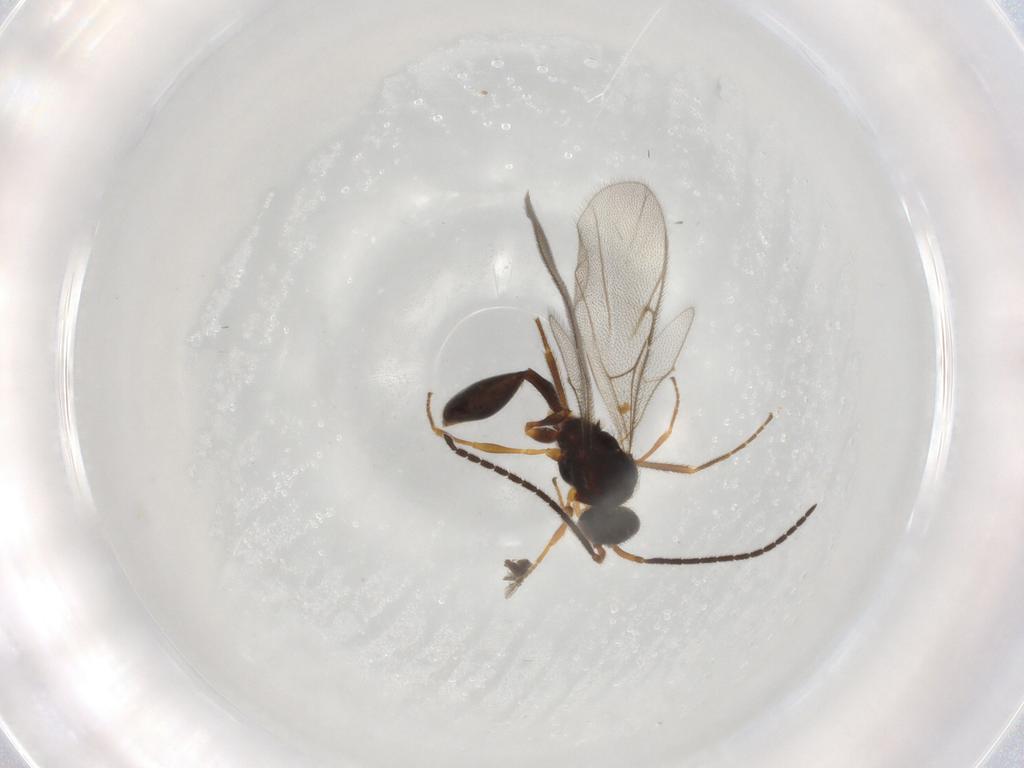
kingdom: Animalia
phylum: Arthropoda
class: Insecta
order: Hymenoptera
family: Diapriidae
